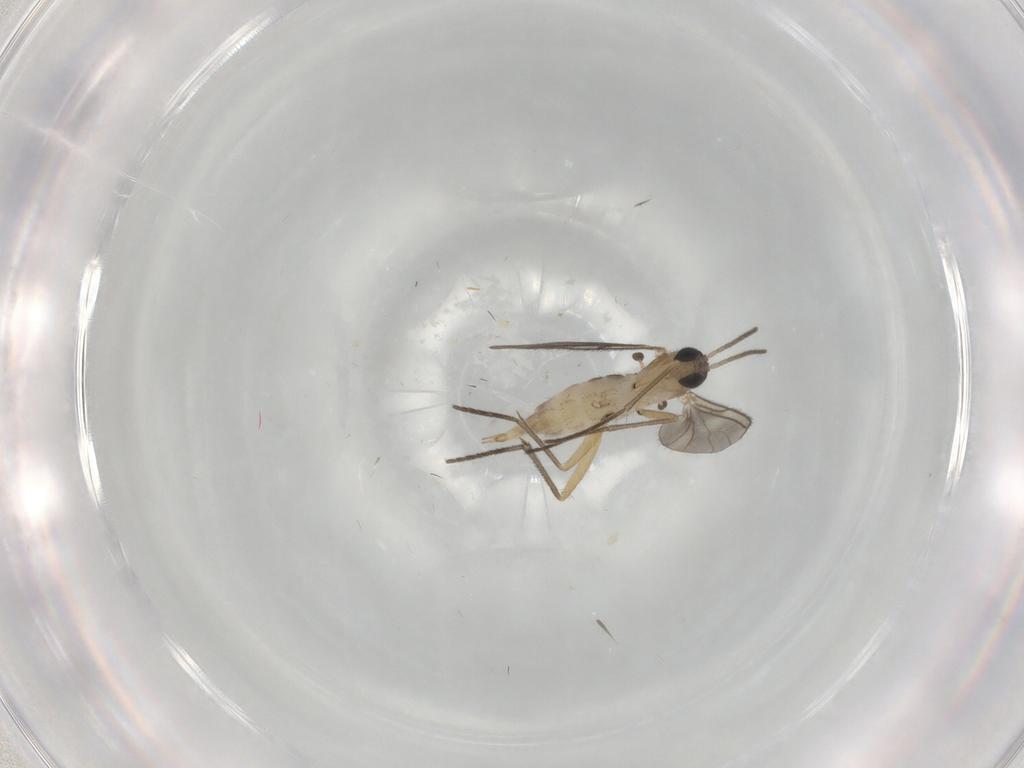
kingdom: Animalia
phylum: Arthropoda
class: Insecta
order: Diptera
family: Sciaridae
